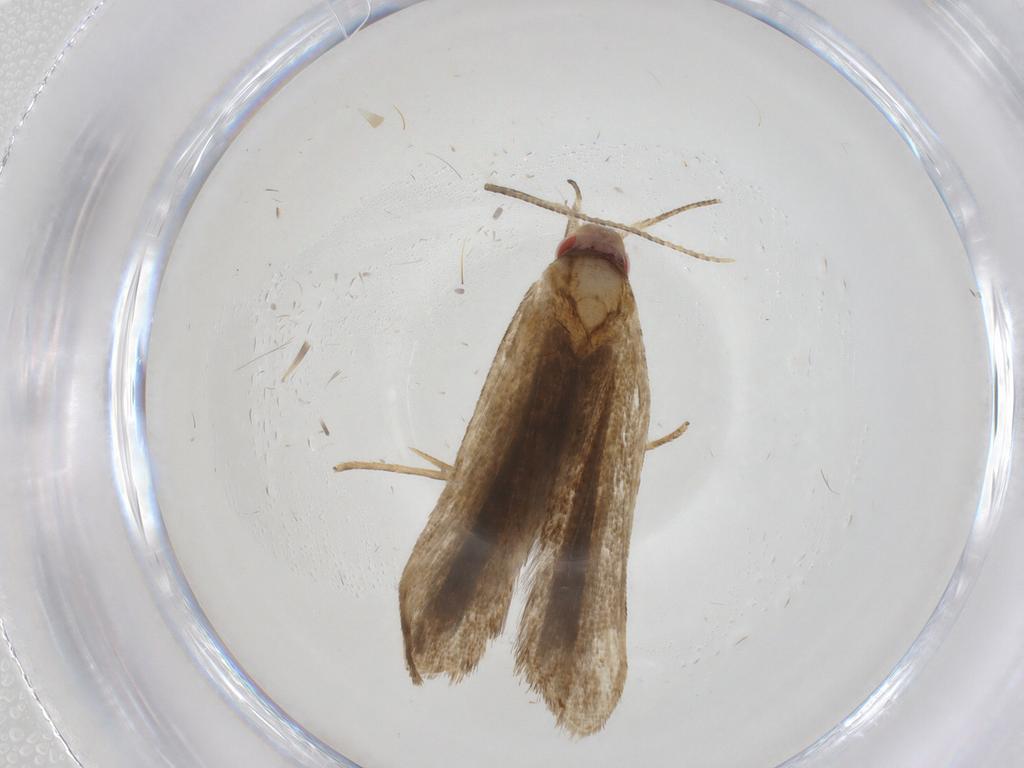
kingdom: Animalia
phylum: Arthropoda
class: Insecta
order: Lepidoptera
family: Gelechiidae
